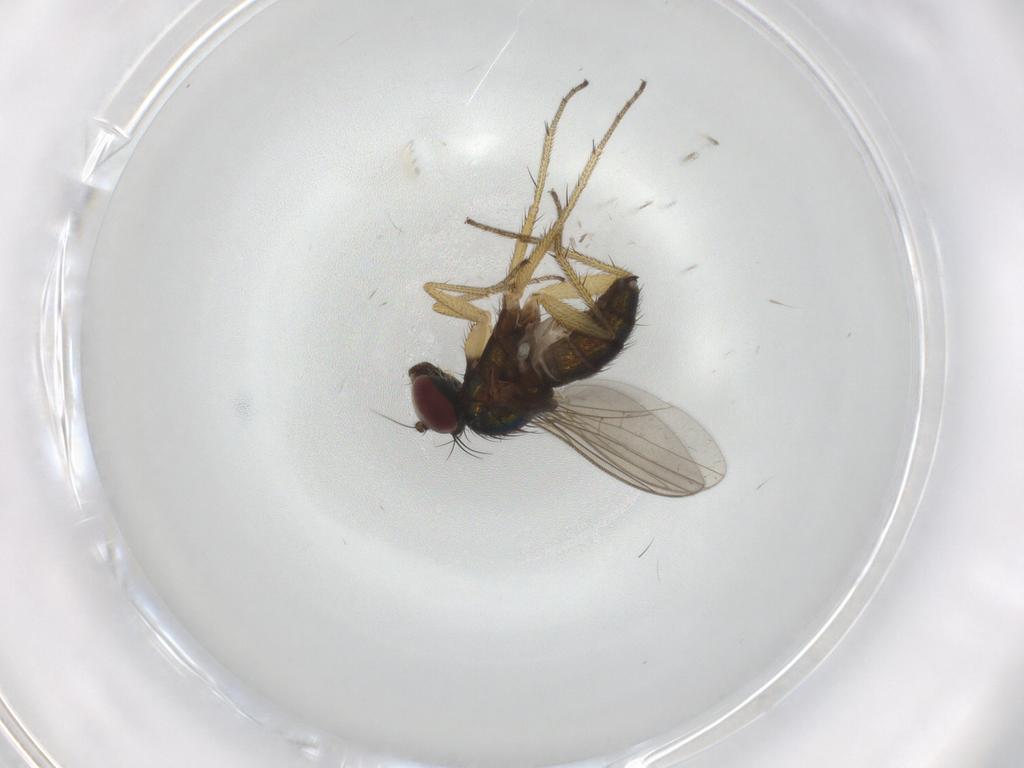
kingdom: Animalia
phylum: Arthropoda
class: Insecta
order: Diptera
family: Chironomidae
